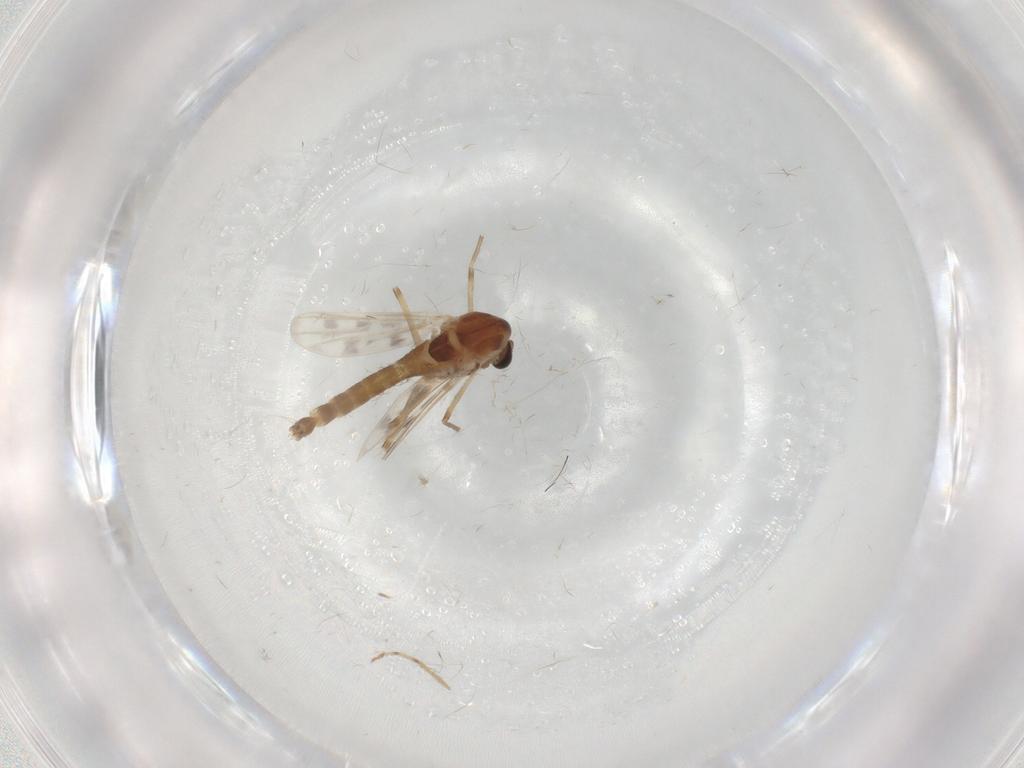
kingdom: Animalia
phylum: Arthropoda
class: Insecta
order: Diptera
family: Chironomidae
